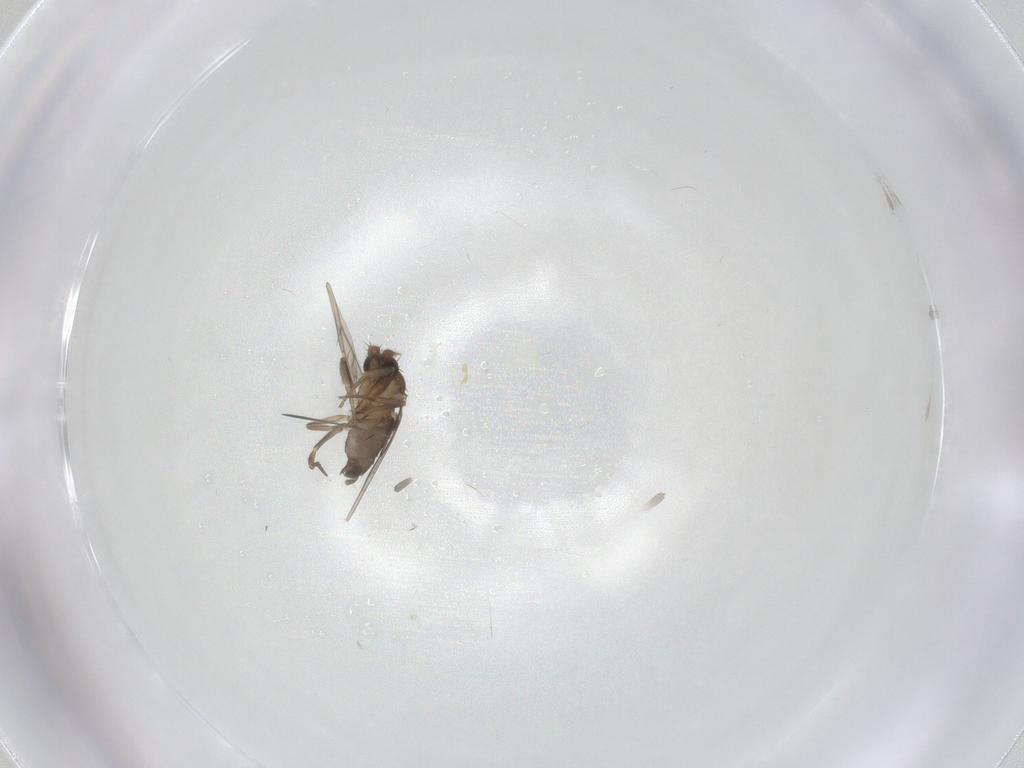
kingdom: Animalia
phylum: Arthropoda
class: Insecta
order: Diptera
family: Phoridae
